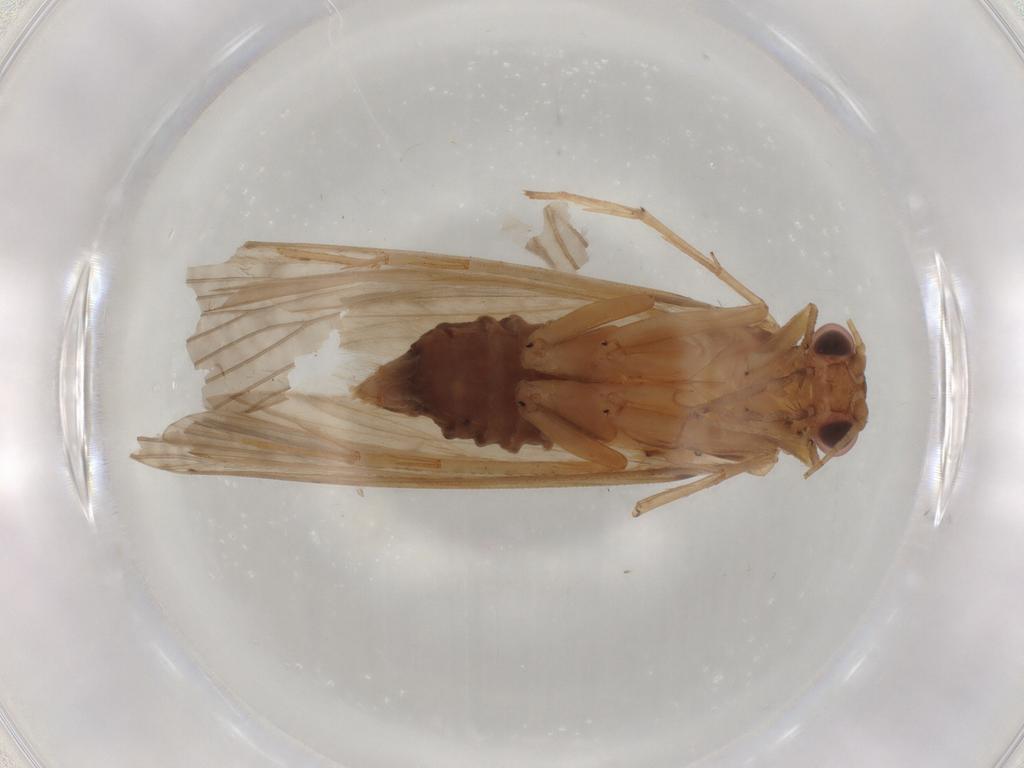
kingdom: Animalia
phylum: Arthropoda
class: Insecta
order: Trichoptera
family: Hydropsychidae
